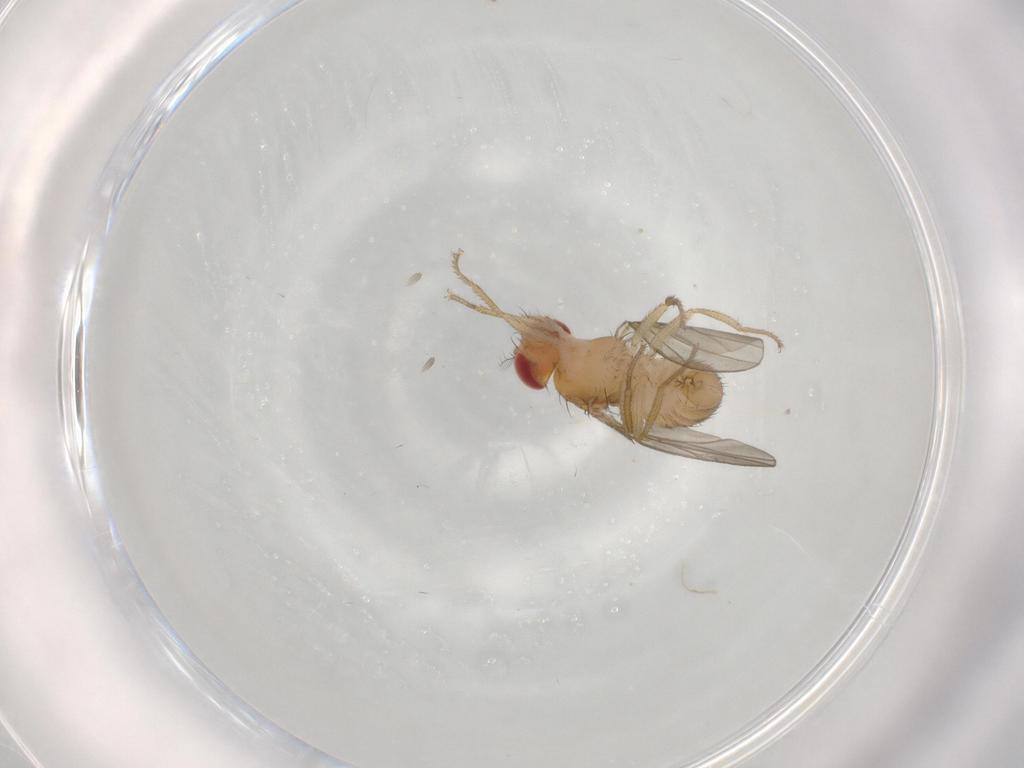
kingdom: Animalia
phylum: Arthropoda
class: Insecta
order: Diptera
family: Drosophilidae
